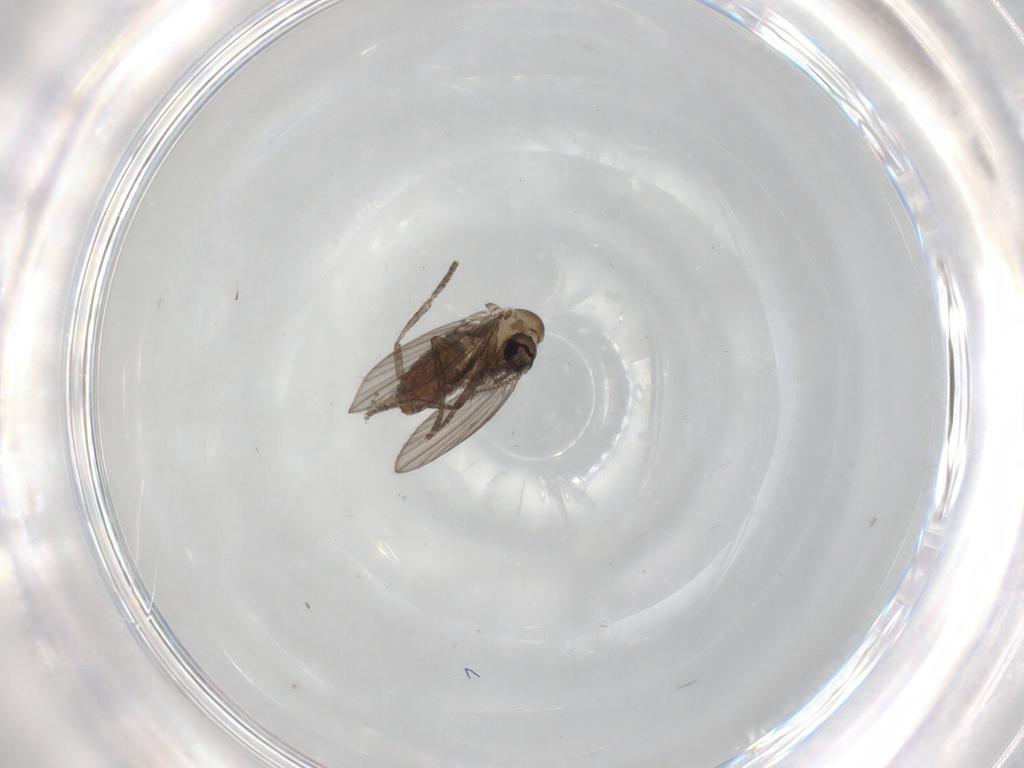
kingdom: Animalia
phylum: Arthropoda
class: Insecta
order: Diptera
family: Psychodidae
